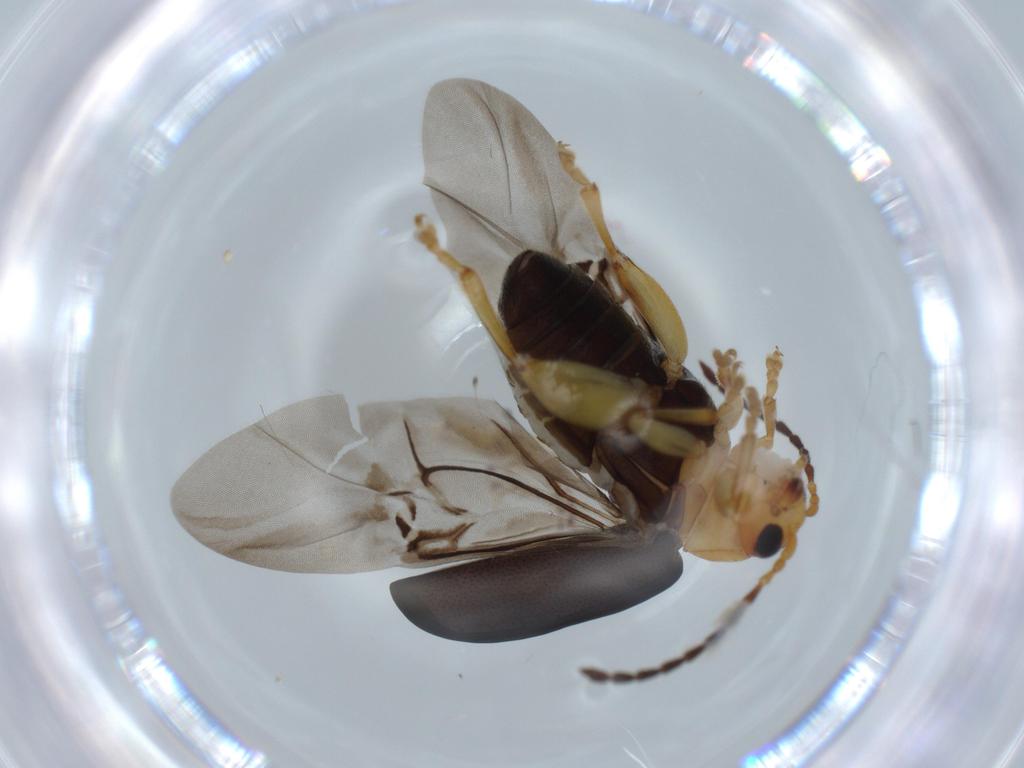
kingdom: Animalia
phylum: Arthropoda
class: Insecta
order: Coleoptera
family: Chrysomelidae
